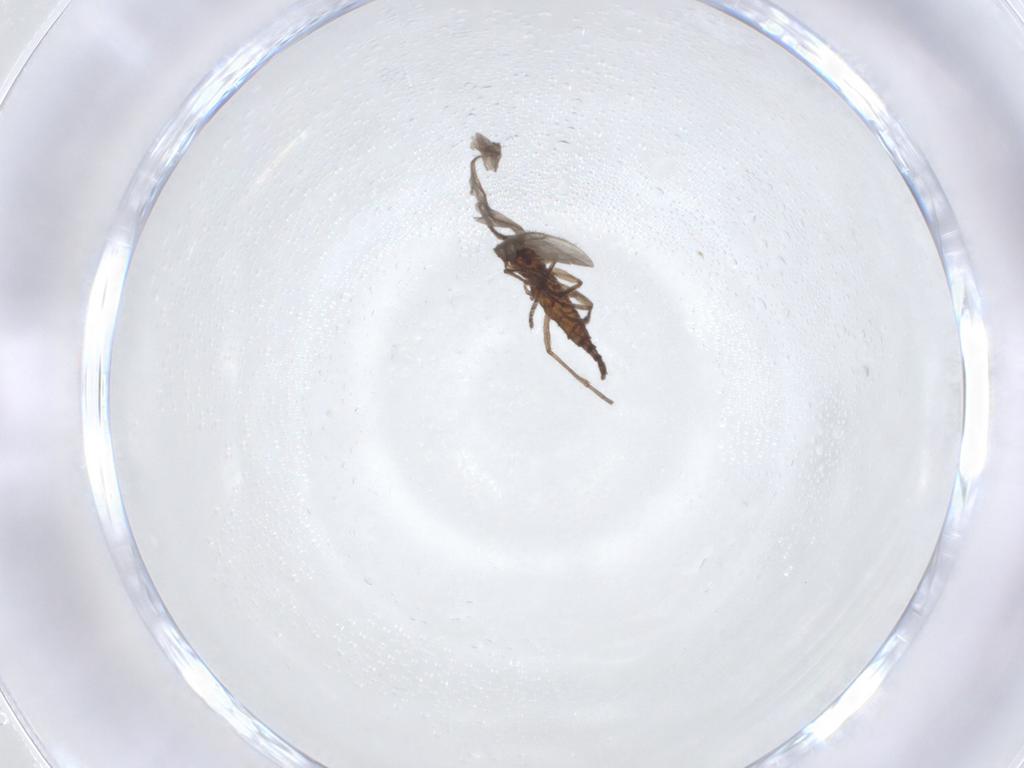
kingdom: Animalia
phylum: Arthropoda
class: Insecta
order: Diptera
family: Sciaridae
